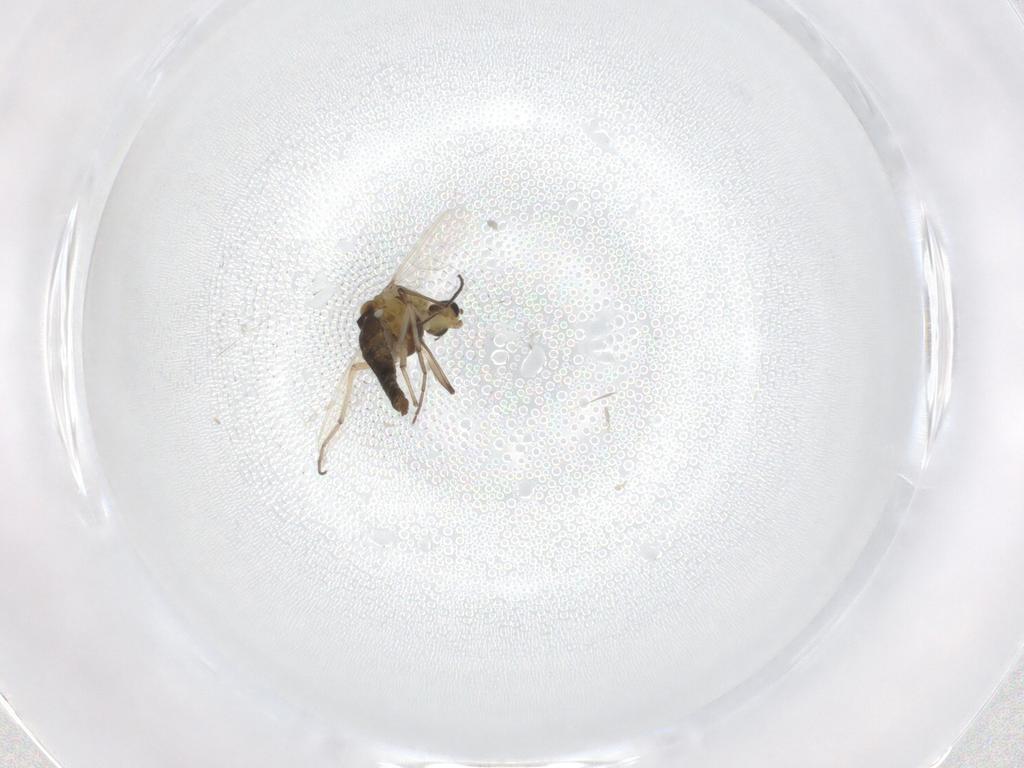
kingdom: Animalia
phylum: Arthropoda
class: Insecta
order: Diptera
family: Chironomidae
